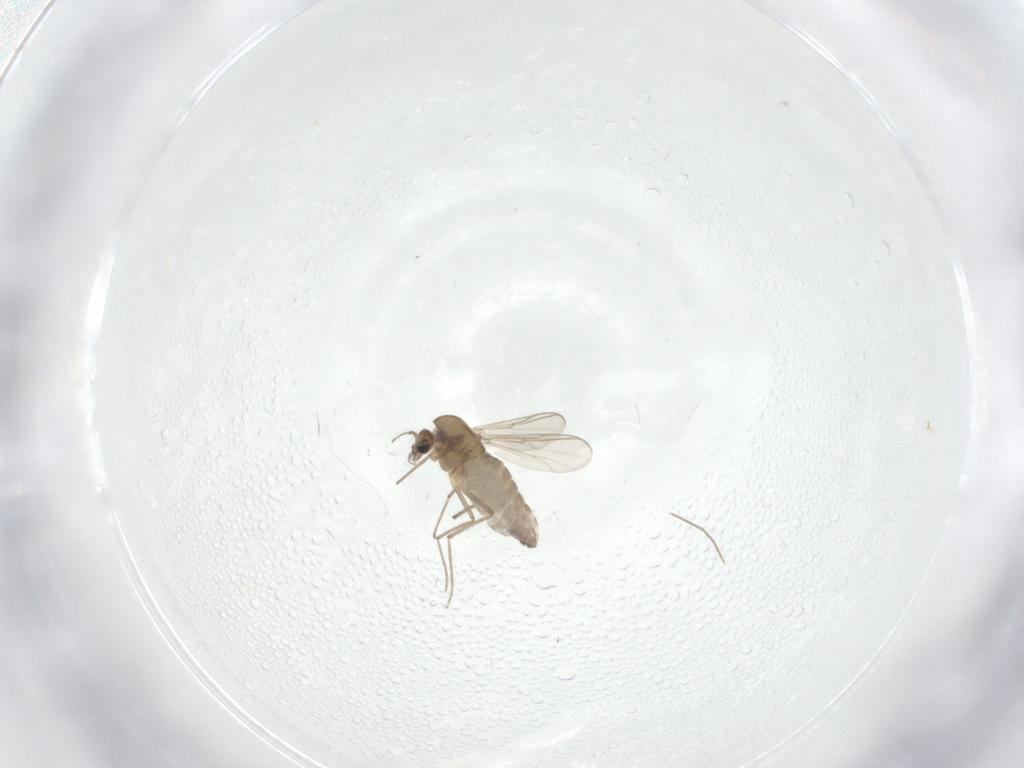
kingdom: Animalia
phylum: Arthropoda
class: Insecta
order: Diptera
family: Chironomidae
